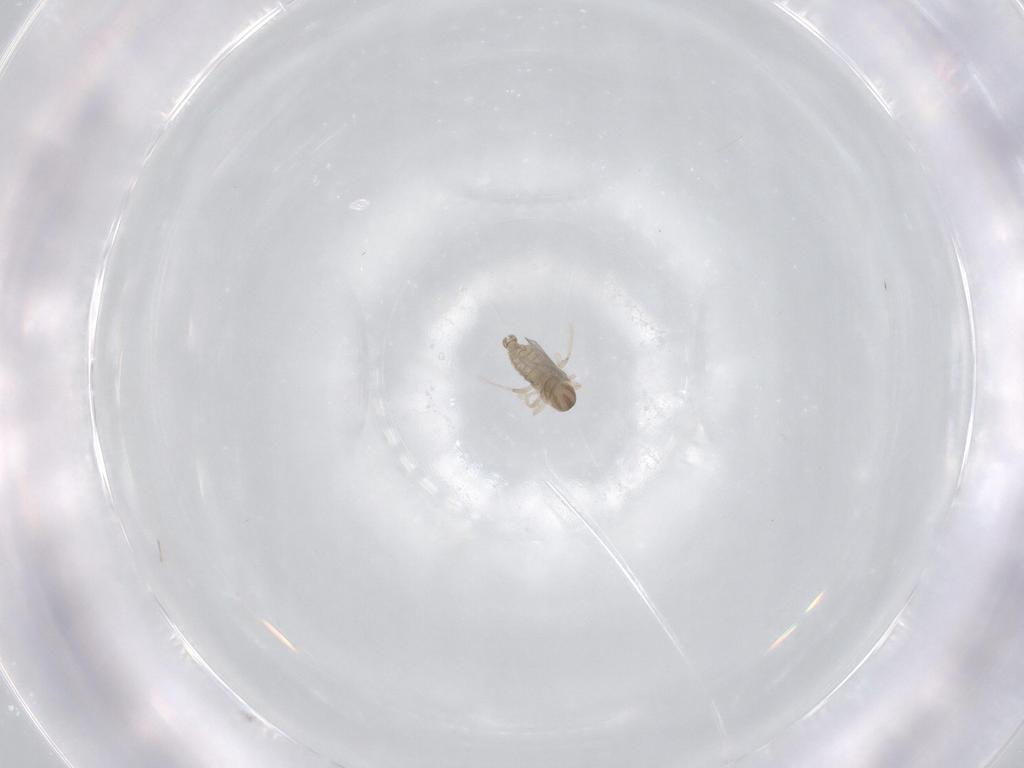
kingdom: Animalia
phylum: Arthropoda
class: Insecta
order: Diptera
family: Cecidomyiidae
